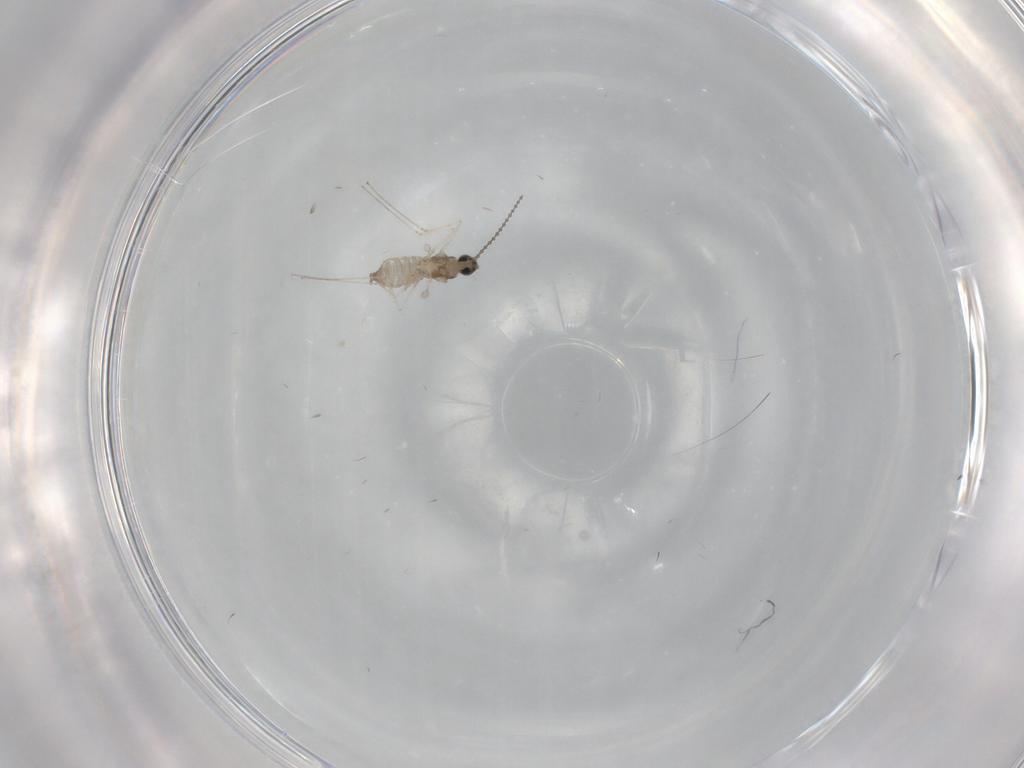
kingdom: Animalia
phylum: Arthropoda
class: Insecta
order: Diptera
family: Cecidomyiidae
